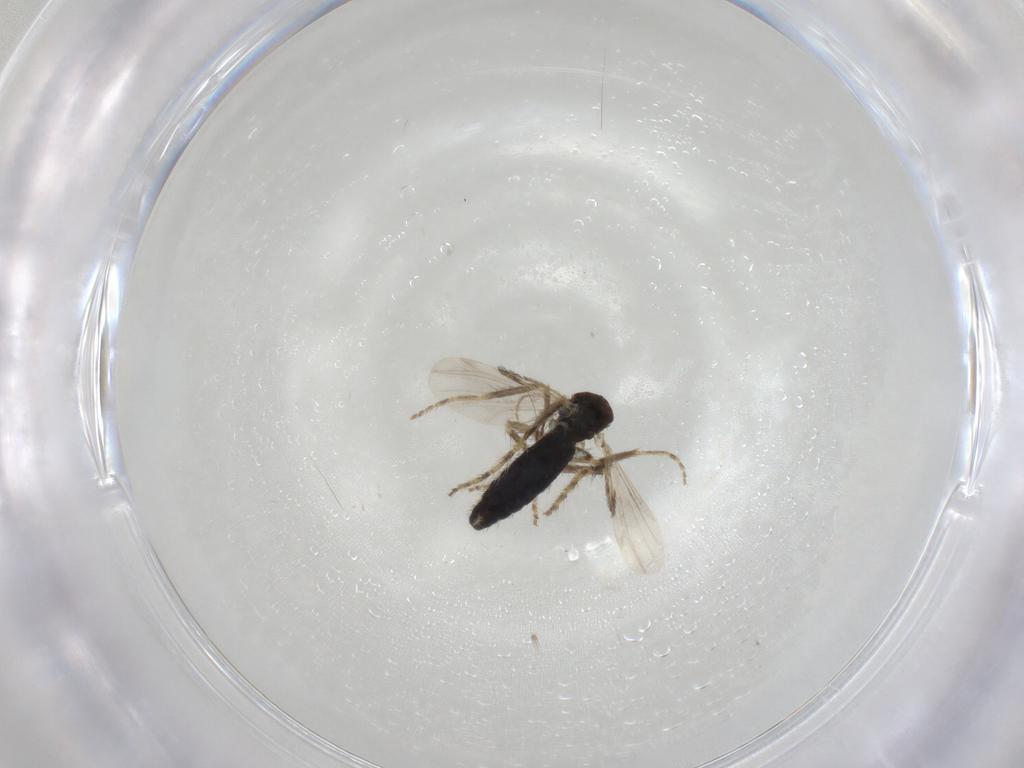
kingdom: Animalia
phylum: Arthropoda
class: Insecta
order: Diptera
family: Ceratopogonidae
